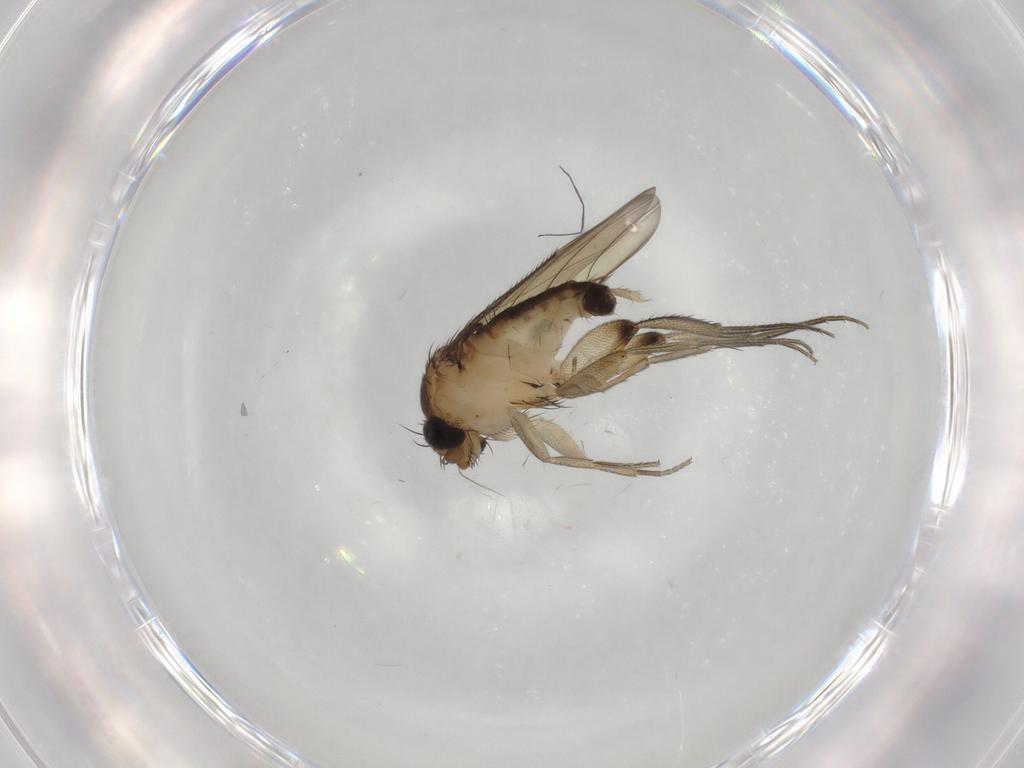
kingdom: Animalia
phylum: Arthropoda
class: Insecta
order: Diptera
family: Phoridae
